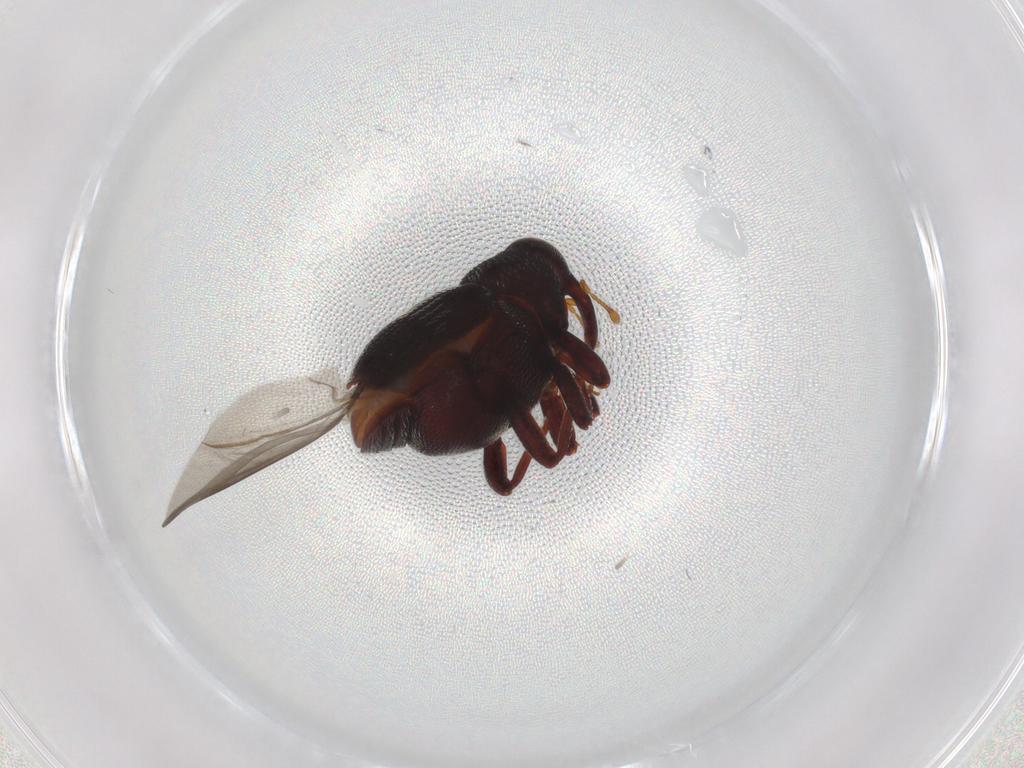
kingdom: Animalia
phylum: Arthropoda
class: Insecta
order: Coleoptera
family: Curculionidae
